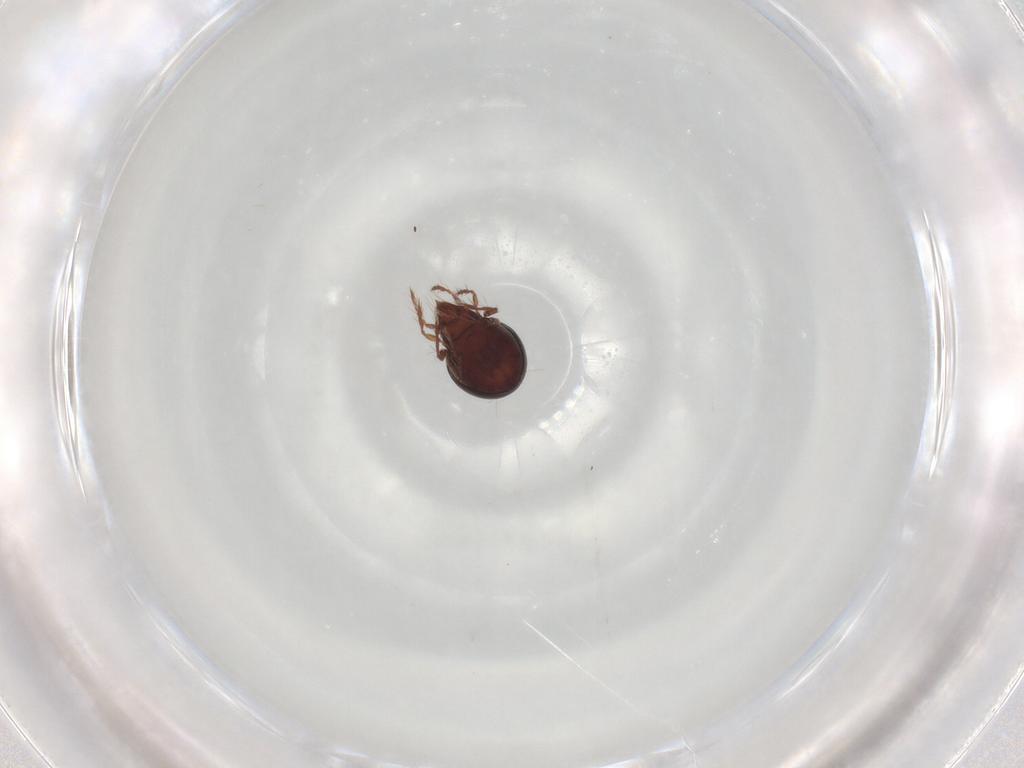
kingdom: Animalia
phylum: Arthropoda
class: Arachnida
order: Sarcoptiformes
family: Ceratoppiidae
